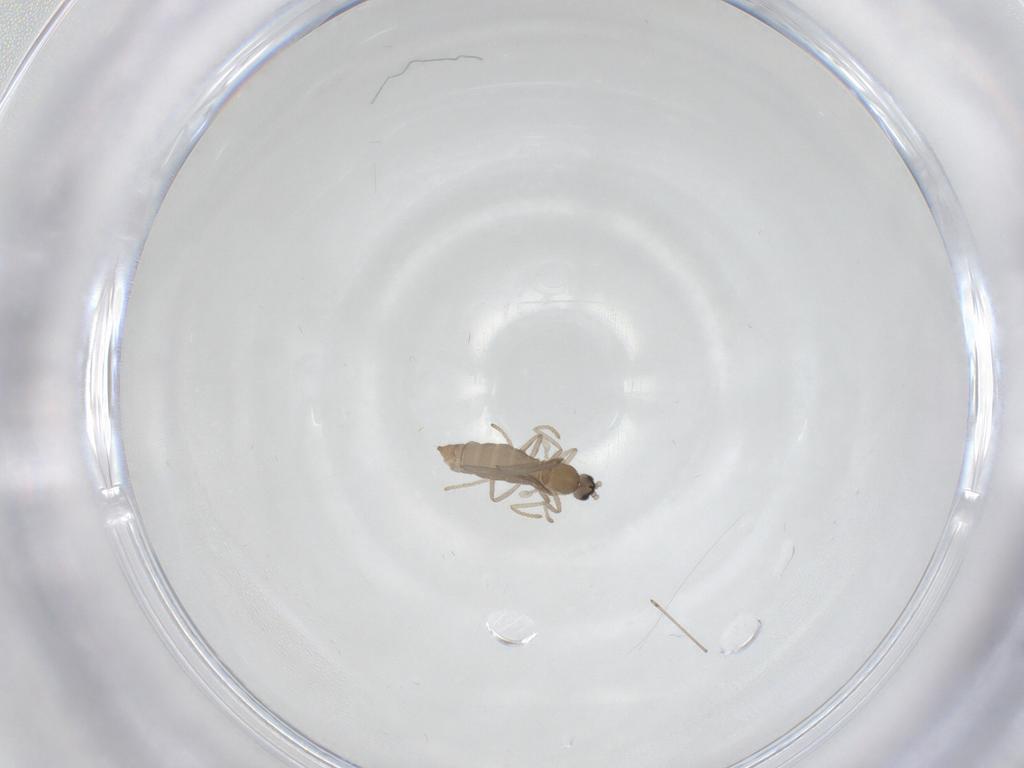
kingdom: Animalia
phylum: Arthropoda
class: Insecta
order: Diptera
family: Cecidomyiidae
